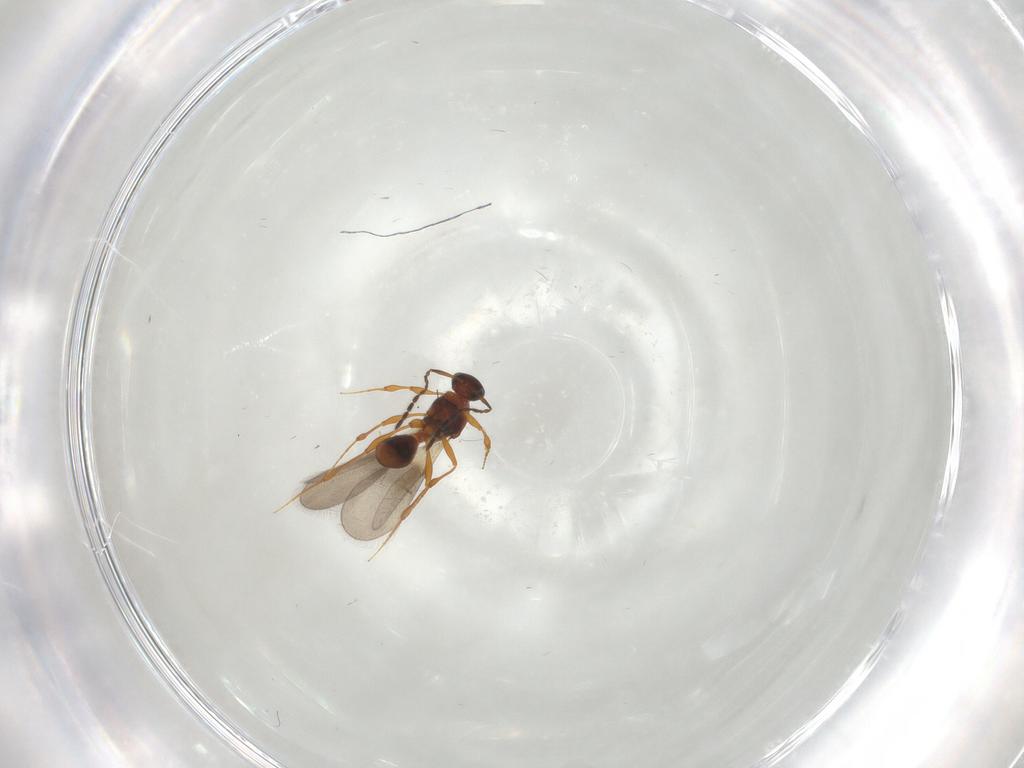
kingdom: Animalia
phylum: Arthropoda
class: Insecta
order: Hymenoptera
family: Platygastridae
